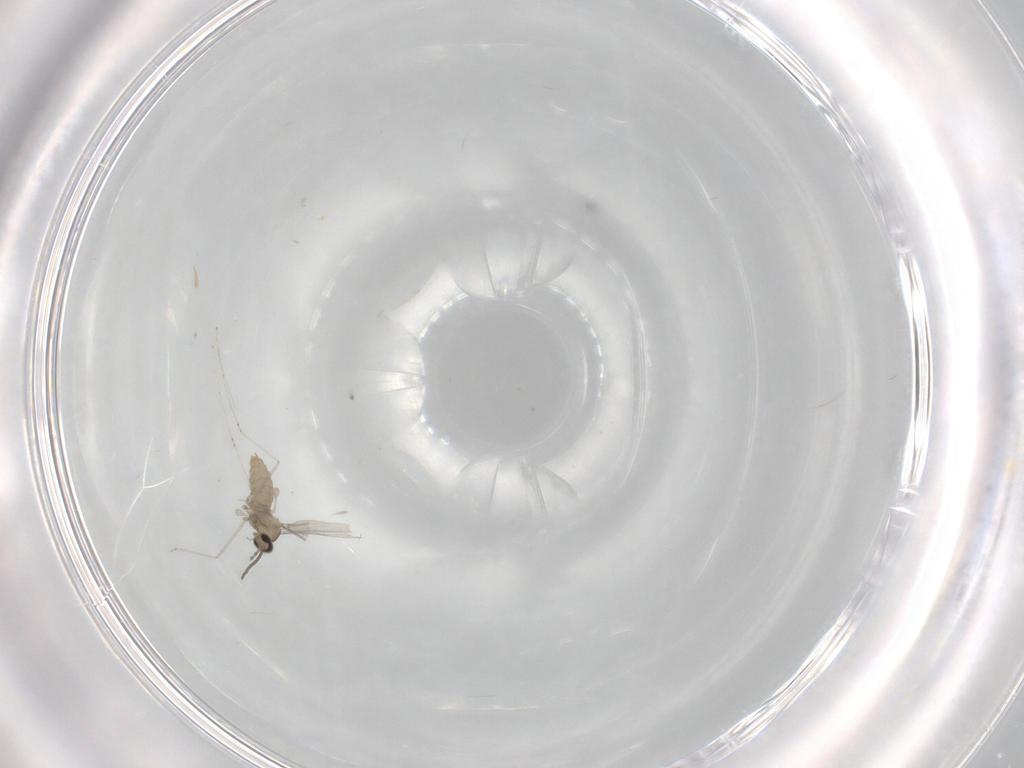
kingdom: Animalia
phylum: Arthropoda
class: Insecta
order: Diptera
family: Cecidomyiidae
